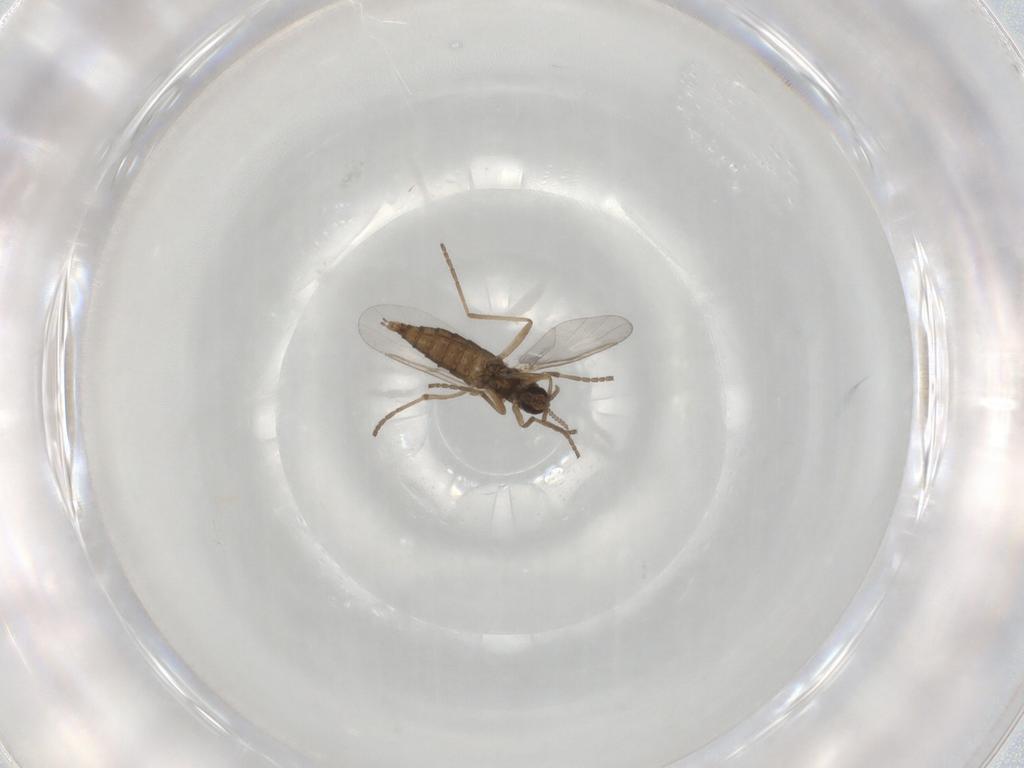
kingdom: Animalia
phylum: Arthropoda
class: Insecta
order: Diptera
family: Cecidomyiidae
